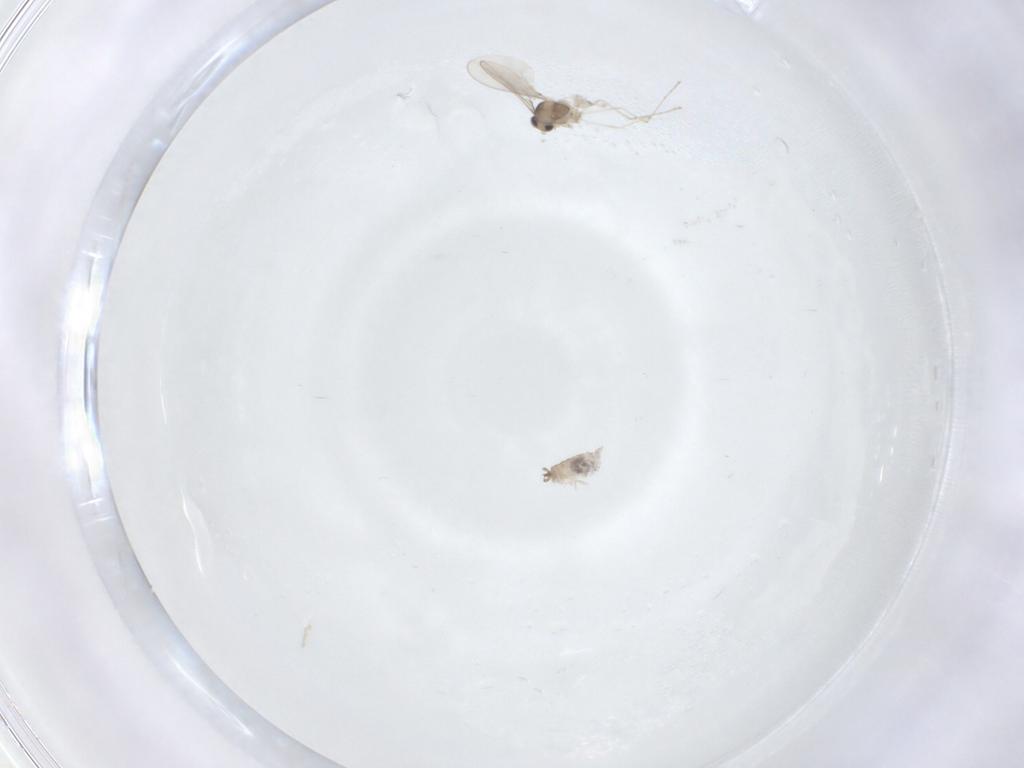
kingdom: Animalia
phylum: Arthropoda
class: Insecta
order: Diptera
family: Cecidomyiidae
